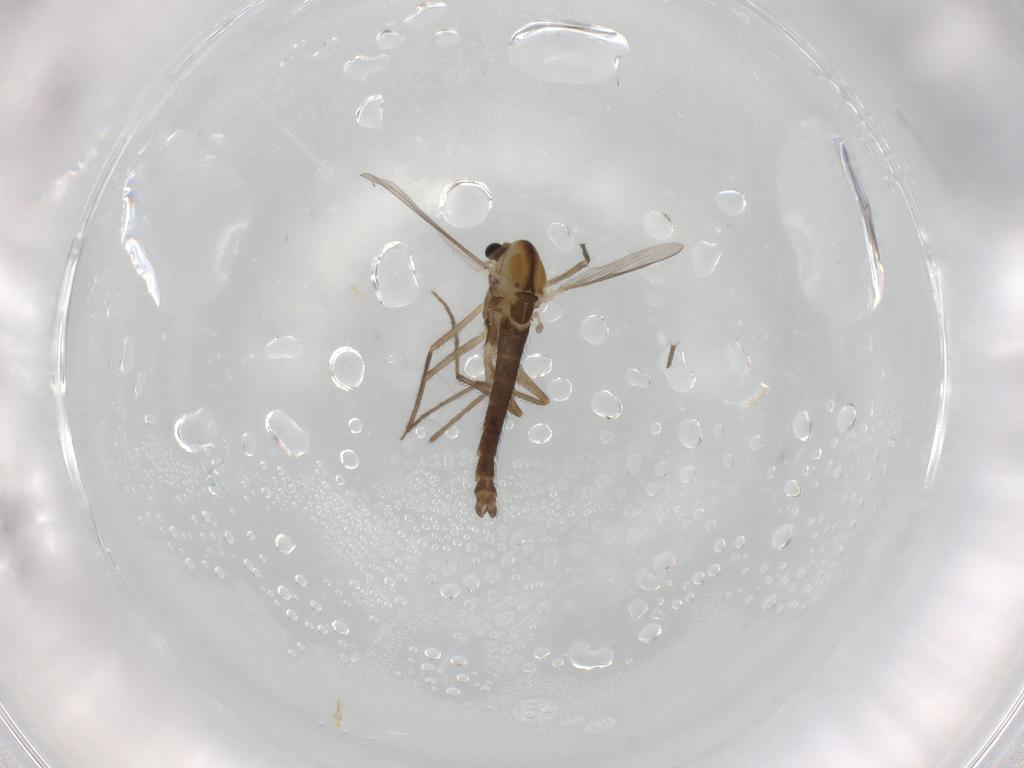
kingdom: Animalia
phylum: Arthropoda
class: Insecta
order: Diptera
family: Chironomidae
